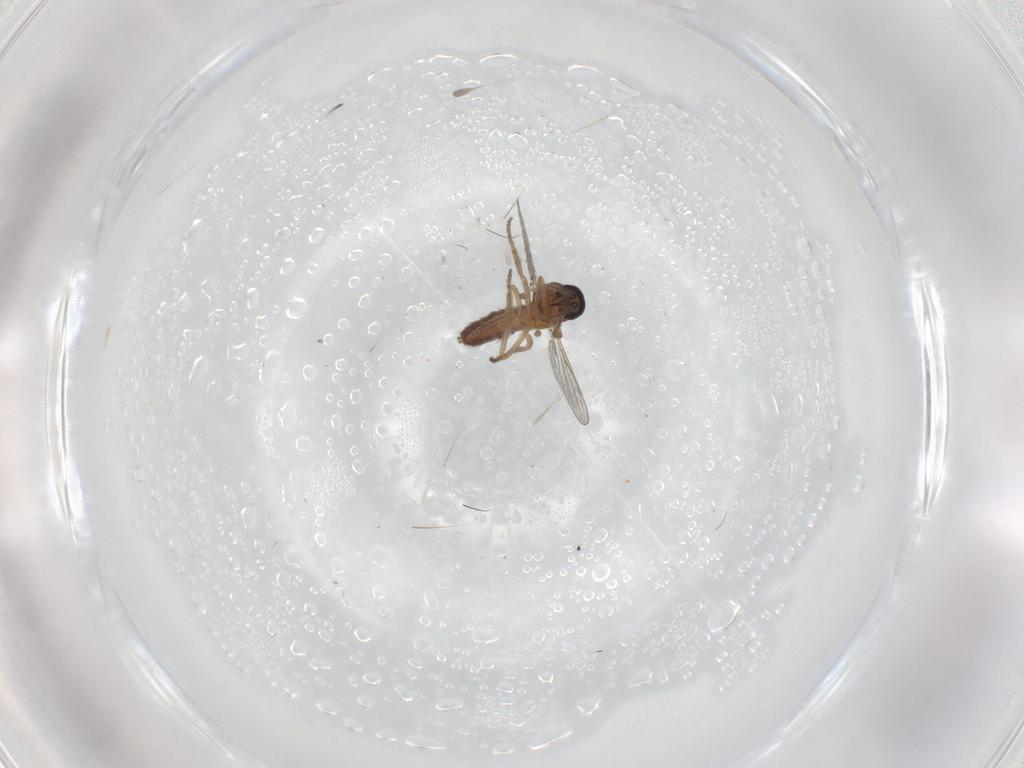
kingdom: Animalia
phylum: Arthropoda
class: Insecta
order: Diptera
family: Ceratopogonidae
